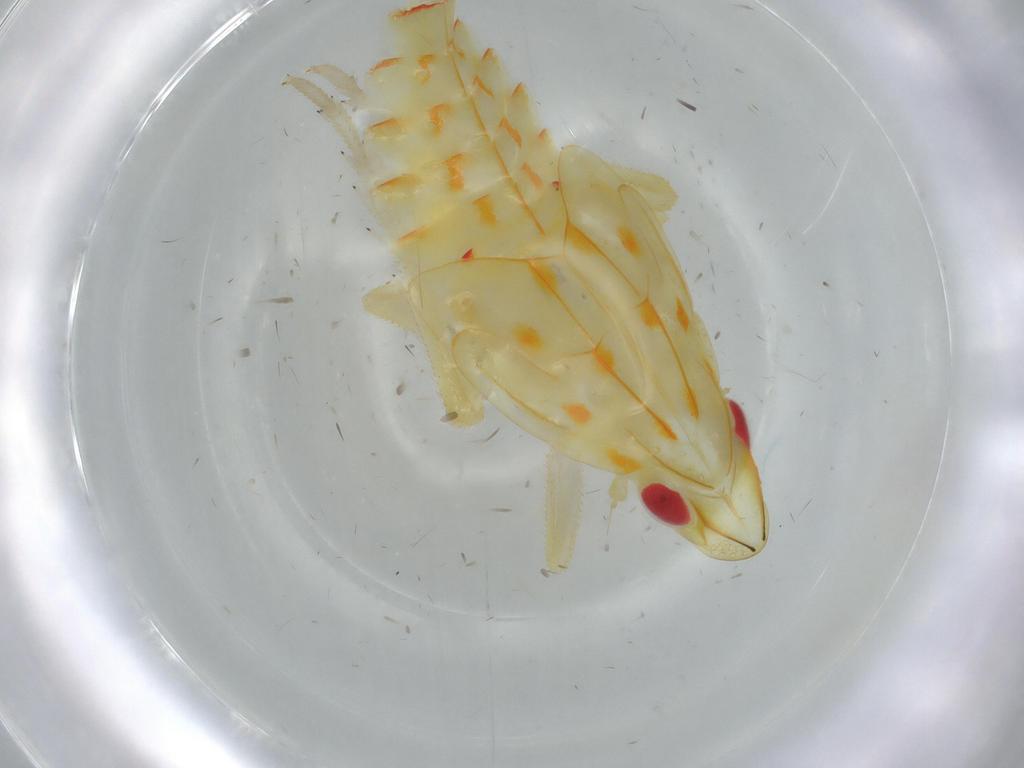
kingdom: Animalia
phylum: Arthropoda
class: Insecta
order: Hemiptera
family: Tropiduchidae
